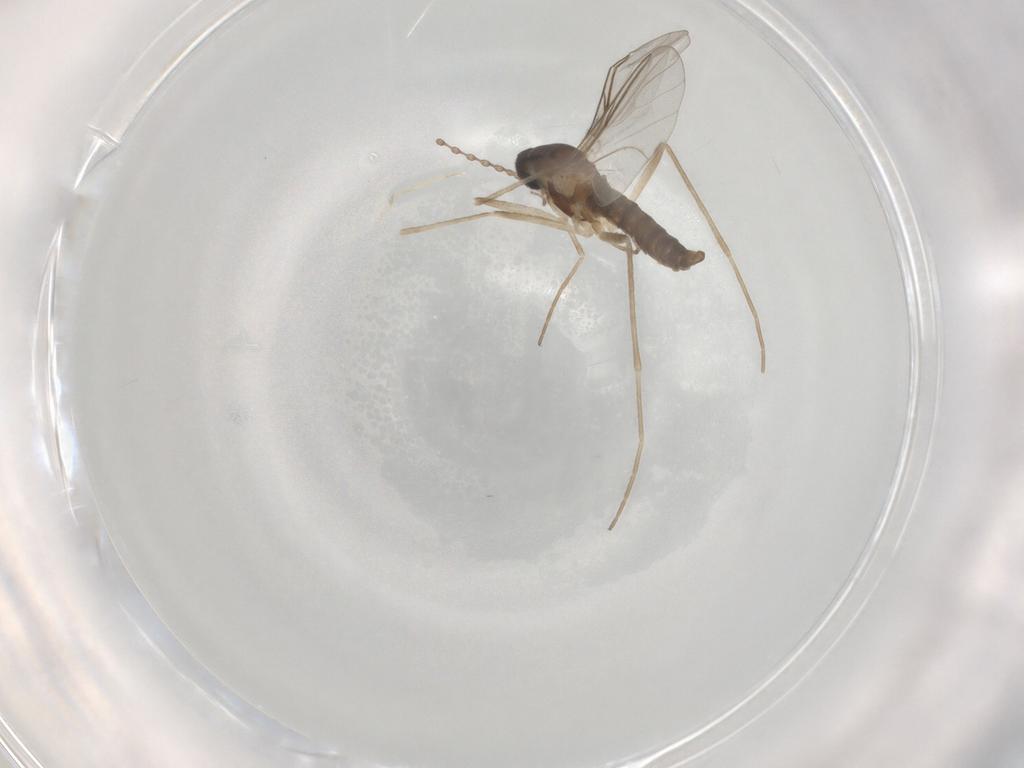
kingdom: Animalia
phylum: Arthropoda
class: Insecta
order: Diptera
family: Cecidomyiidae
